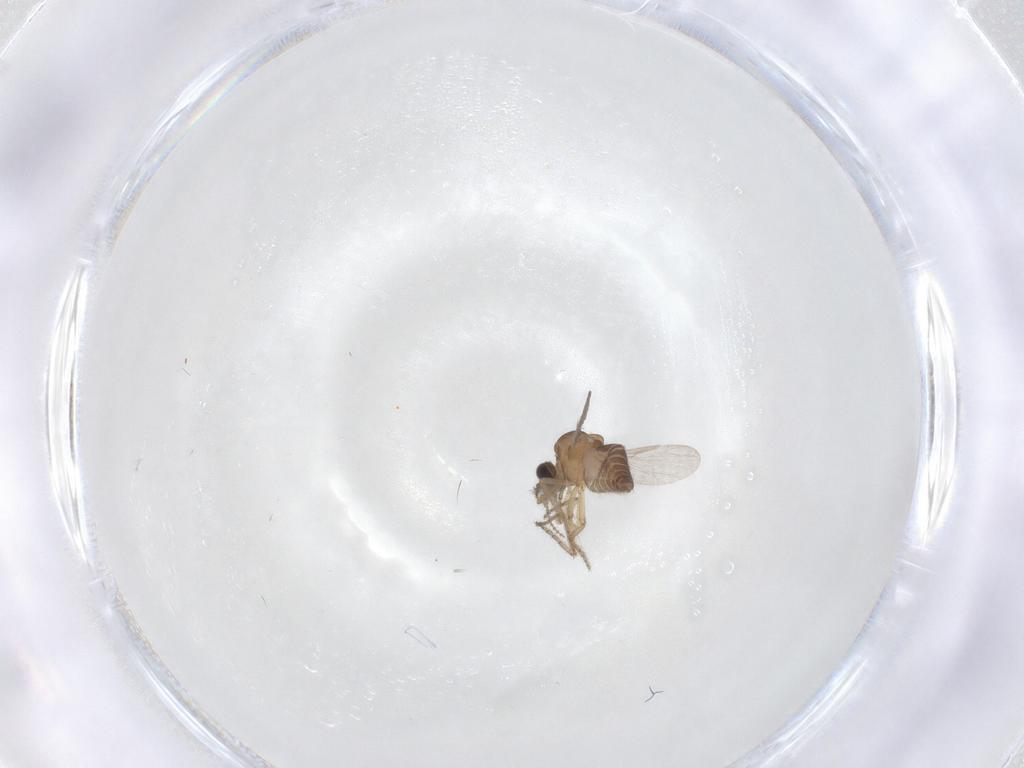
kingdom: Animalia
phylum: Arthropoda
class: Insecta
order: Diptera
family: Ceratopogonidae
